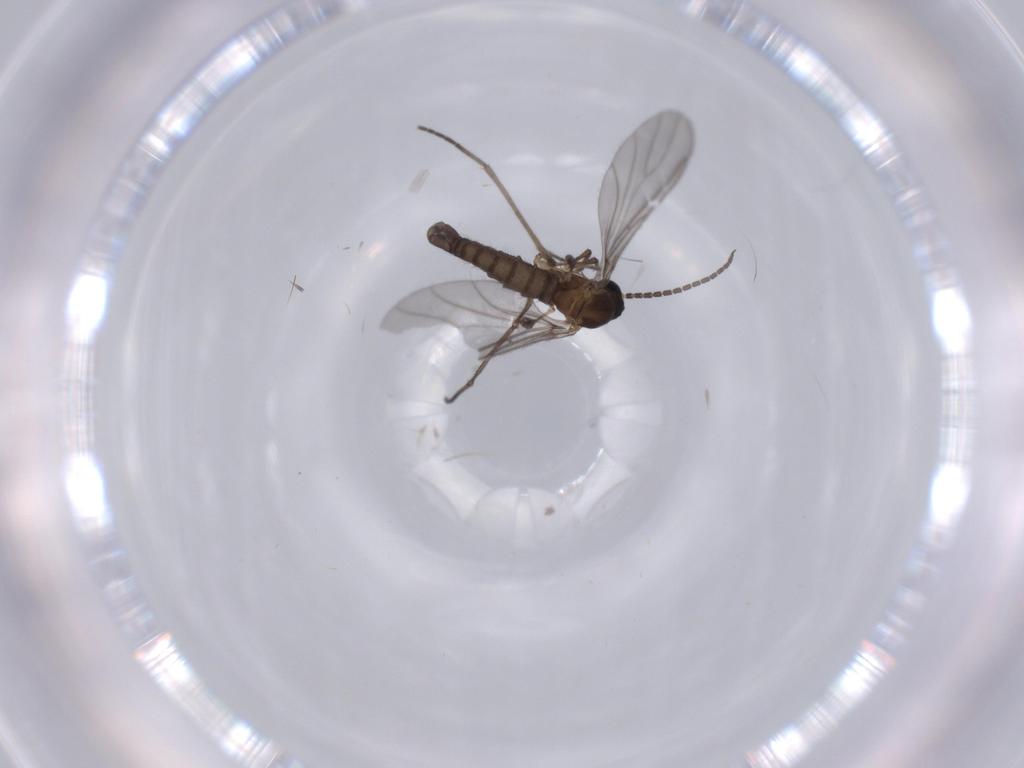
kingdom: Animalia
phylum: Arthropoda
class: Insecta
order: Diptera
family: Sciaridae
